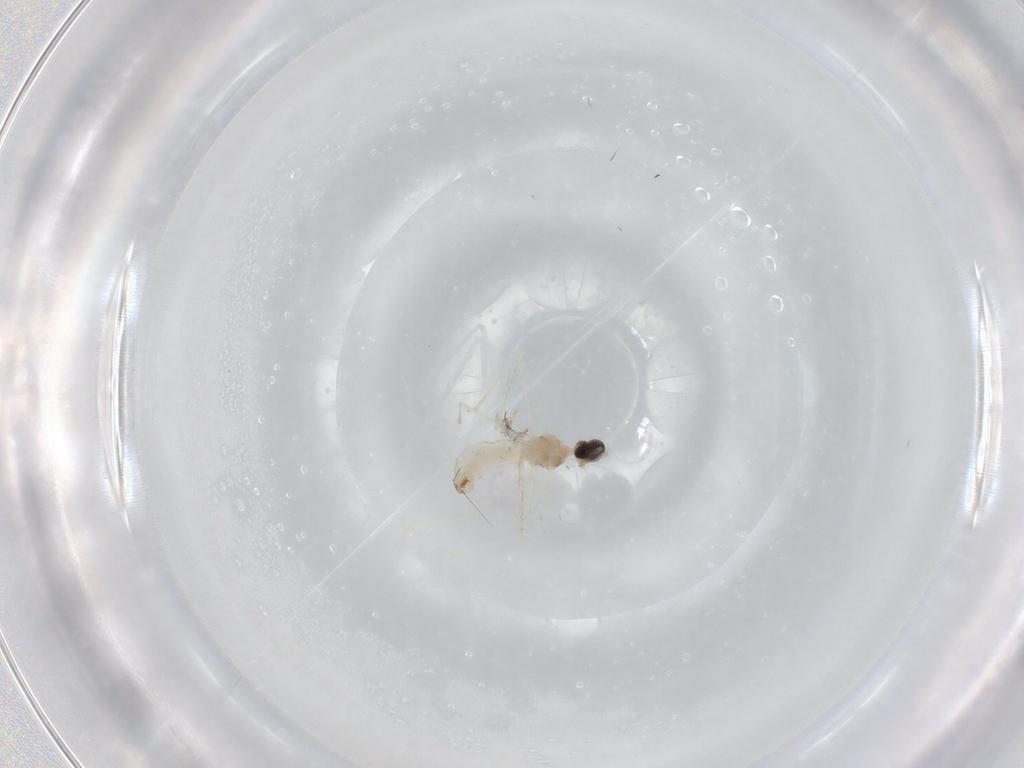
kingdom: Animalia
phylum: Arthropoda
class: Insecta
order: Diptera
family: Cecidomyiidae
